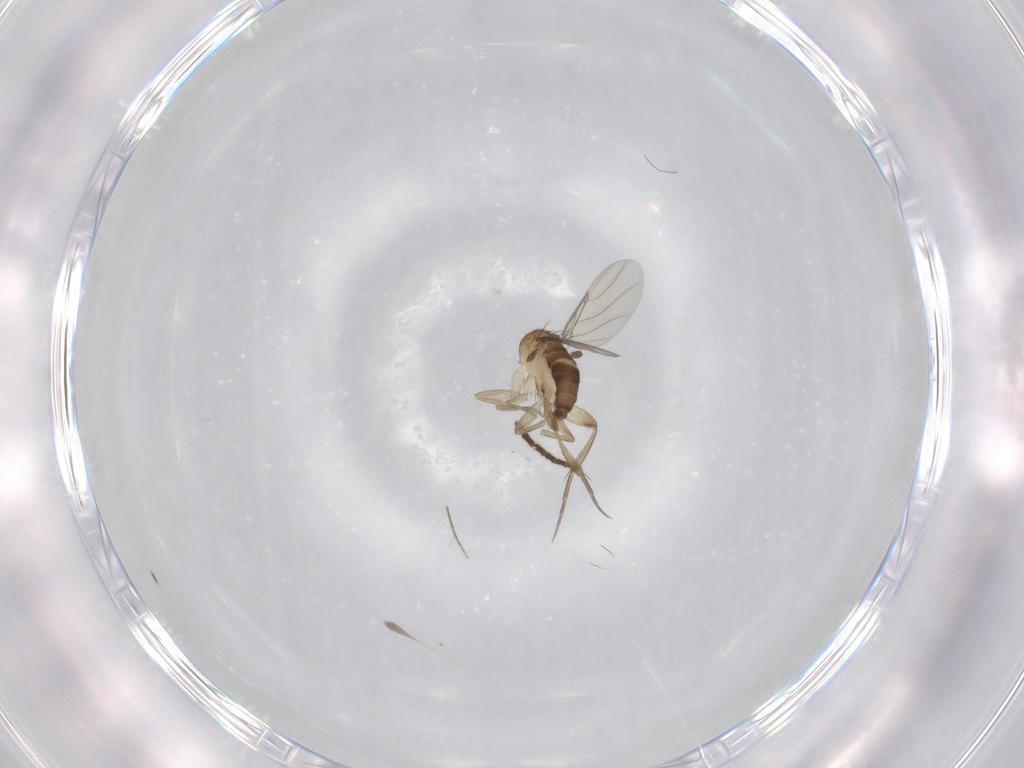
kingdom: Animalia
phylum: Arthropoda
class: Insecta
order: Diptera
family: Phoridae
